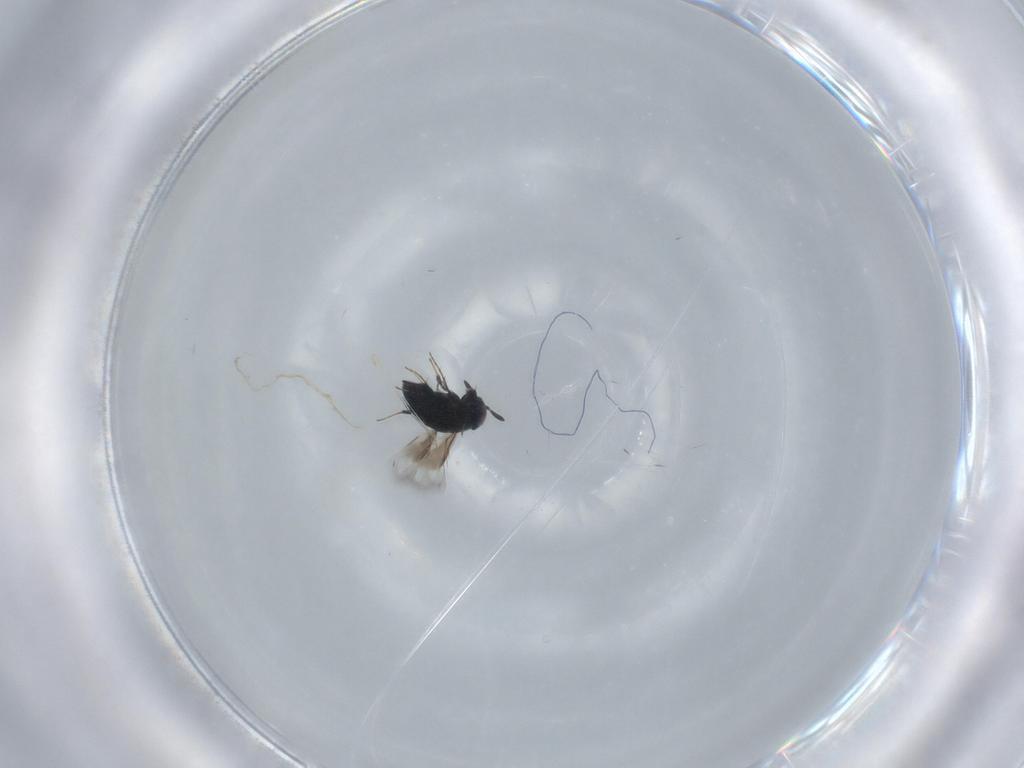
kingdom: Animalia
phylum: Arthropoda
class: Insecta
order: Hymenoptera
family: Signiphoridae
